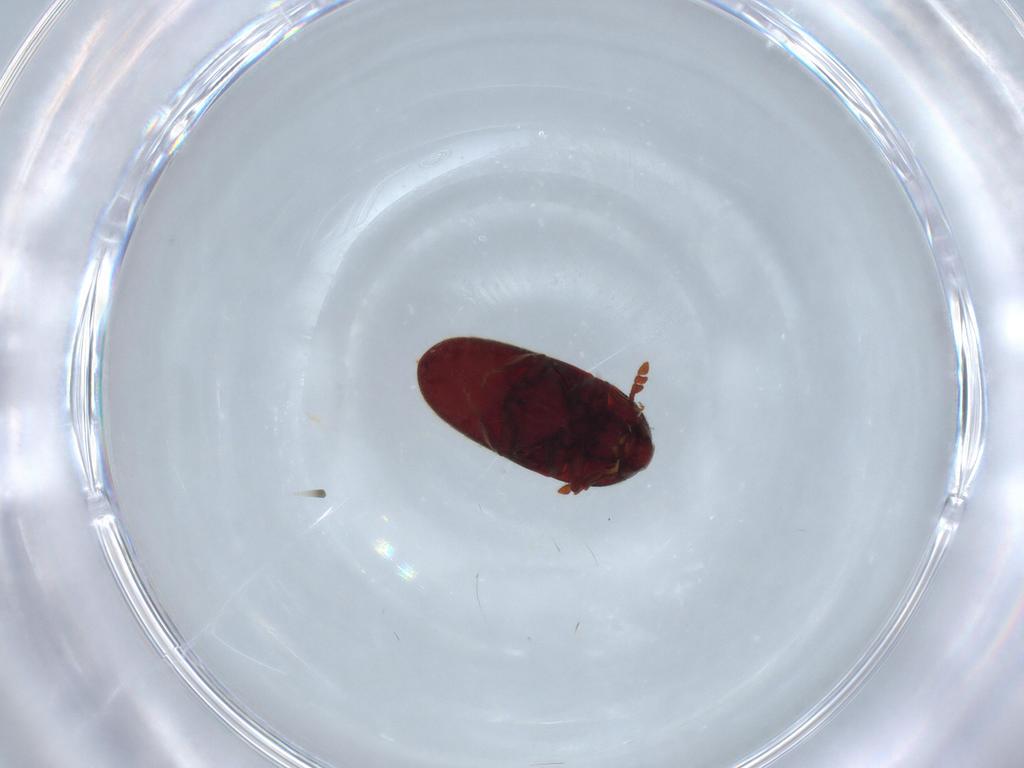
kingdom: Animalia
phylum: Arthropoda
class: Insecta
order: Coleoptera
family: Throscidae
